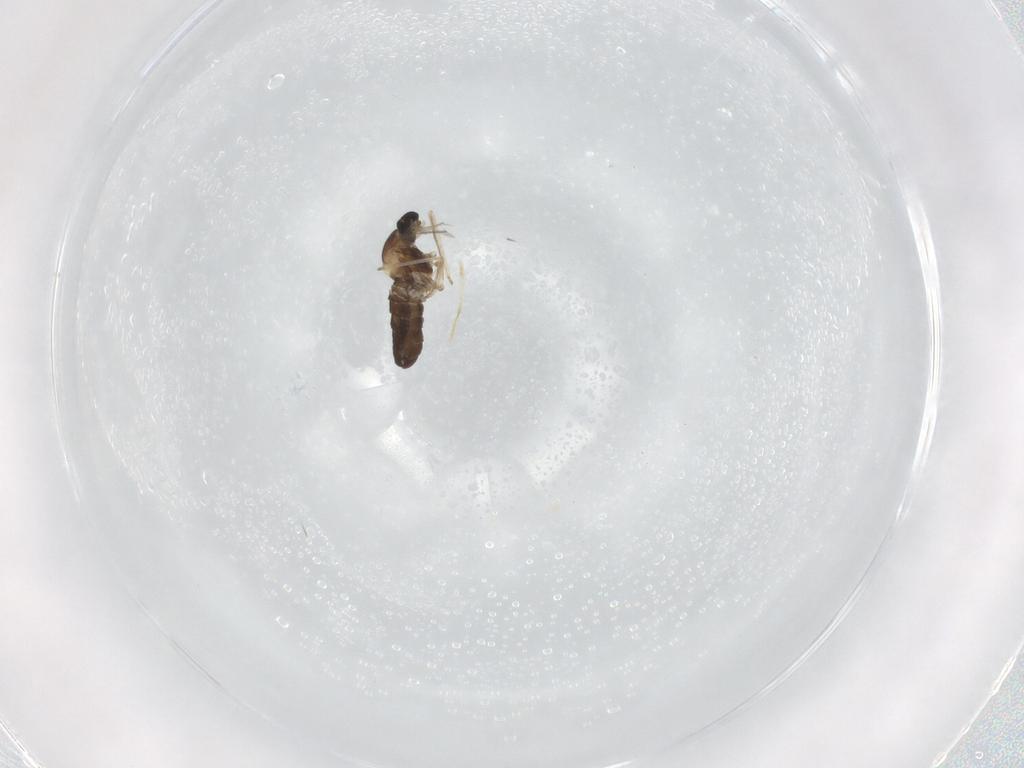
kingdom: Animalia
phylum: Arthropoda
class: Insecta
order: Diptera
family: Cecidomyiidae
